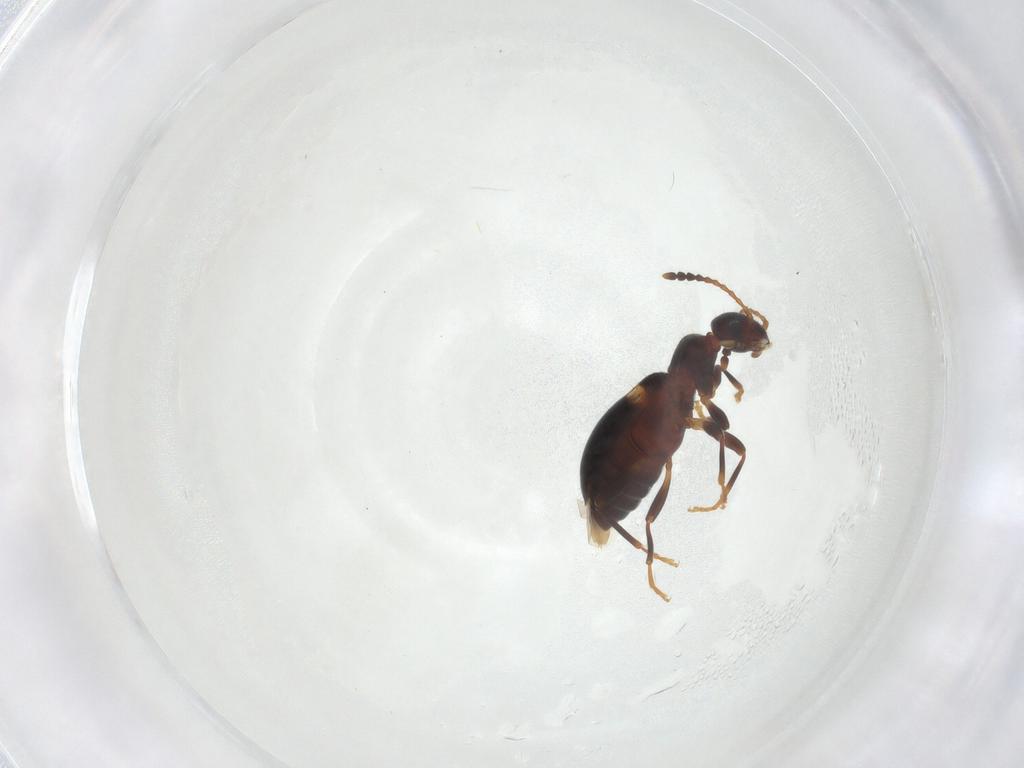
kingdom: Animalia
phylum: Arthropoda
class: Insecta
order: Coleoptera
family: Anthicidae
